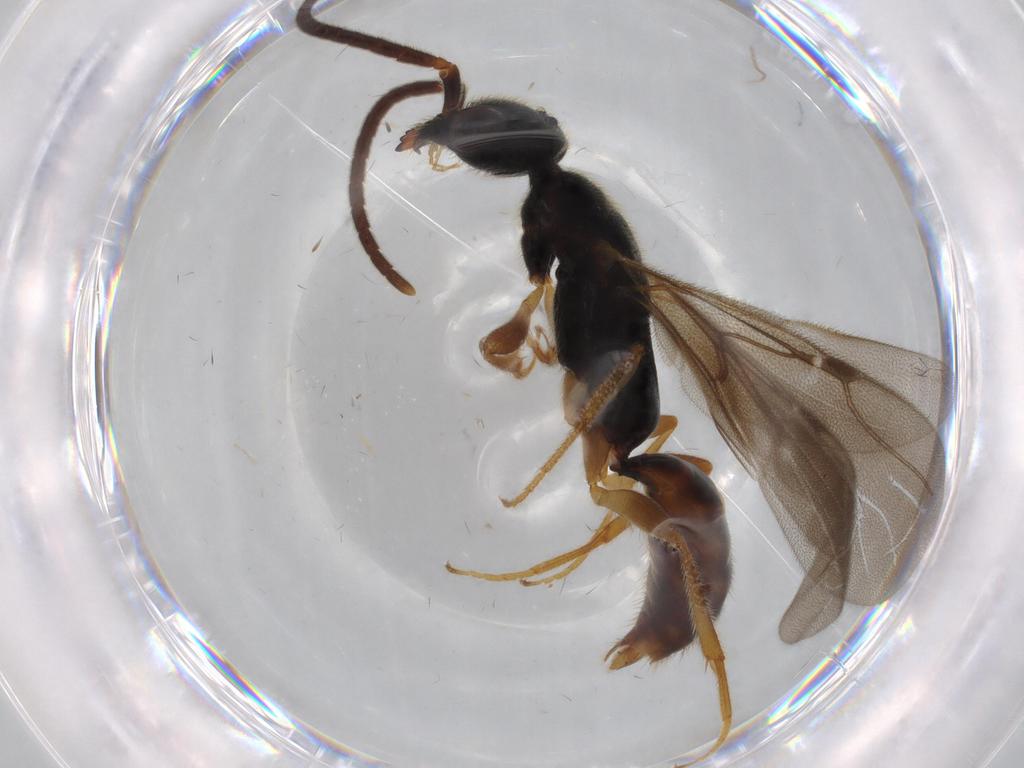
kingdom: Animalia
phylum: Arthropoda
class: Insecta
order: Hymenoptera
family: Bethylidae
